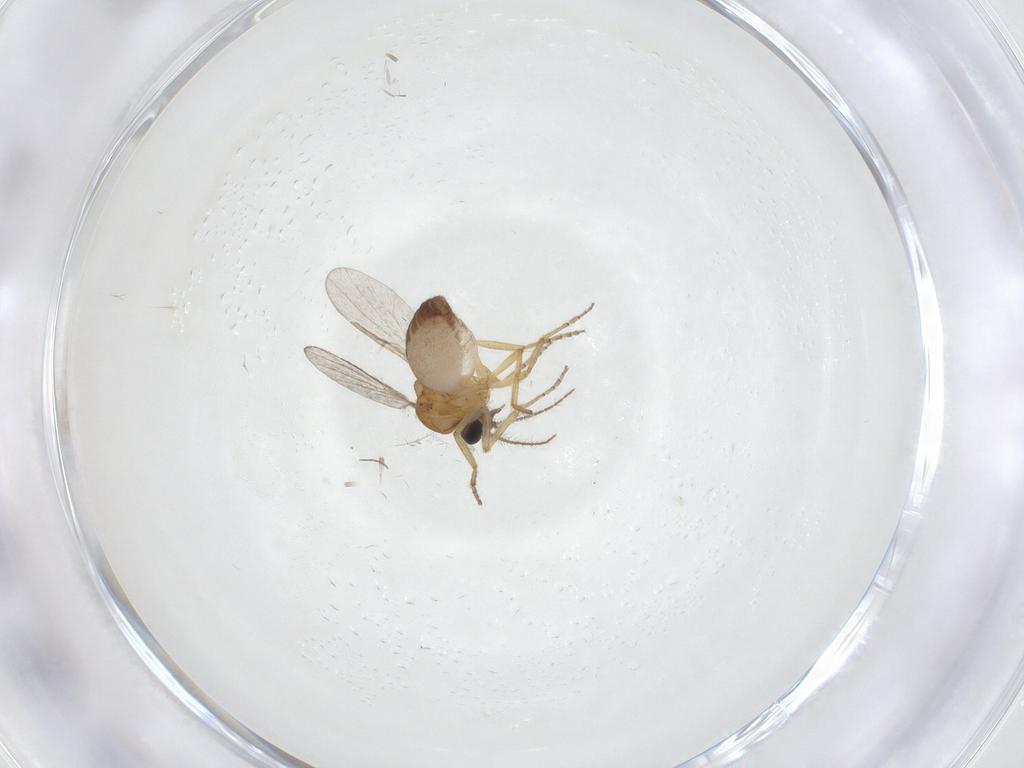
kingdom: Animalia
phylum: Arthropoda
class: Insecta
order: Diptera
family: Ceratopogonidae
